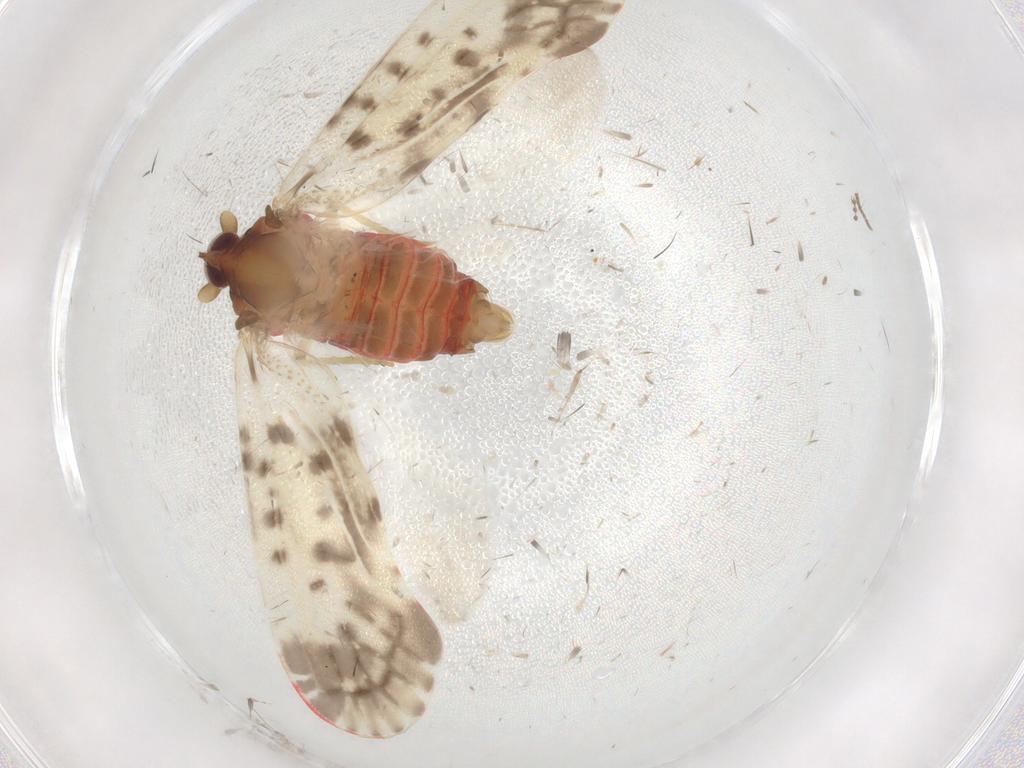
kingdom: Animalia
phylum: Arthropoda
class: Insecta
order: Hemiptera
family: Derbidae
